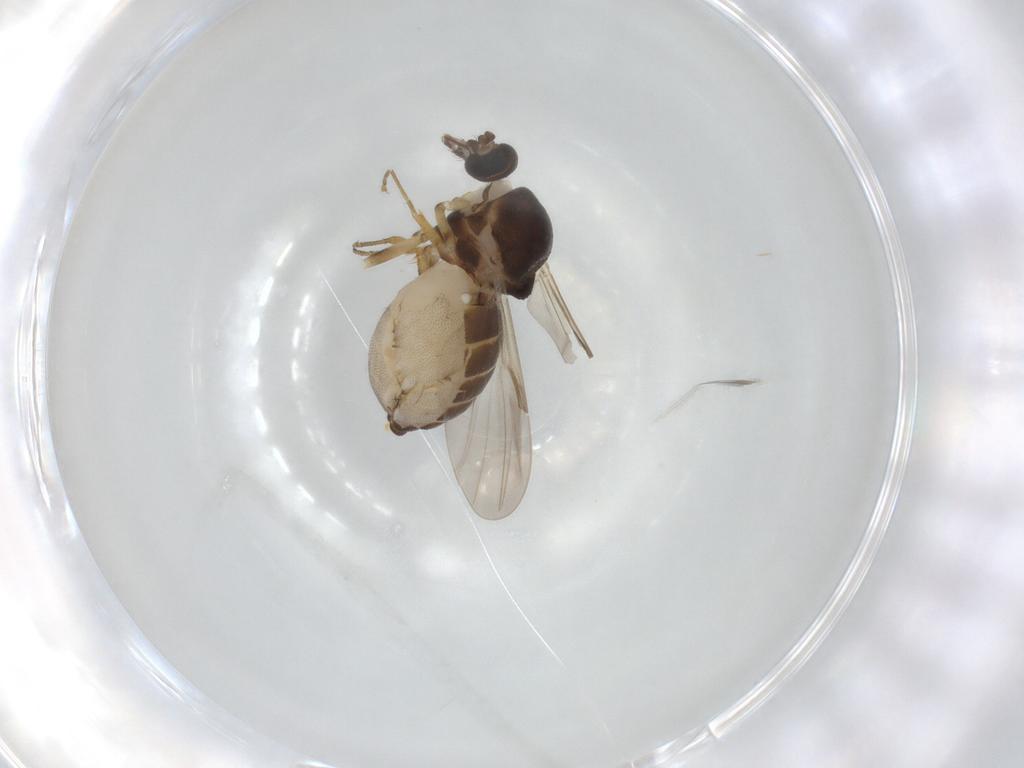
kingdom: Animalia
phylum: Arthropoda
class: Insecta
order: Diptera
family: Ceratopogonidae
